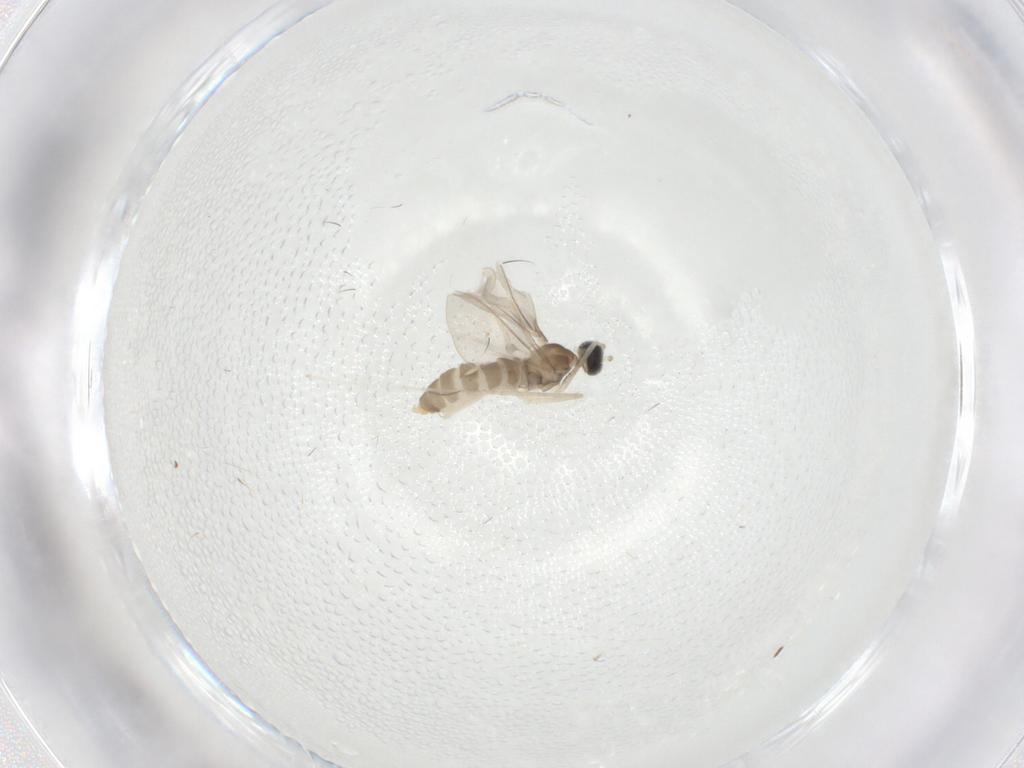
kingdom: Animalia
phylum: Arthropoda
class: Insecta
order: Diptera
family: Cecidomyiidae
